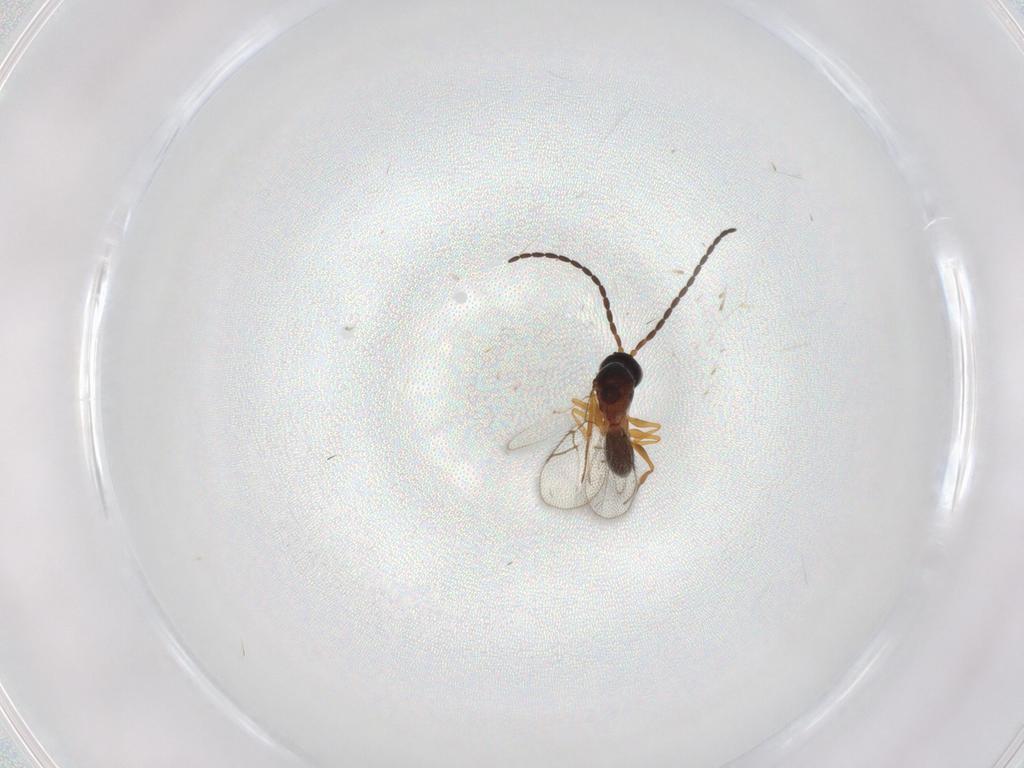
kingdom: Animalia
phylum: Arthropoda
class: Insecta
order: Hymenoptera
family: Figitidae
